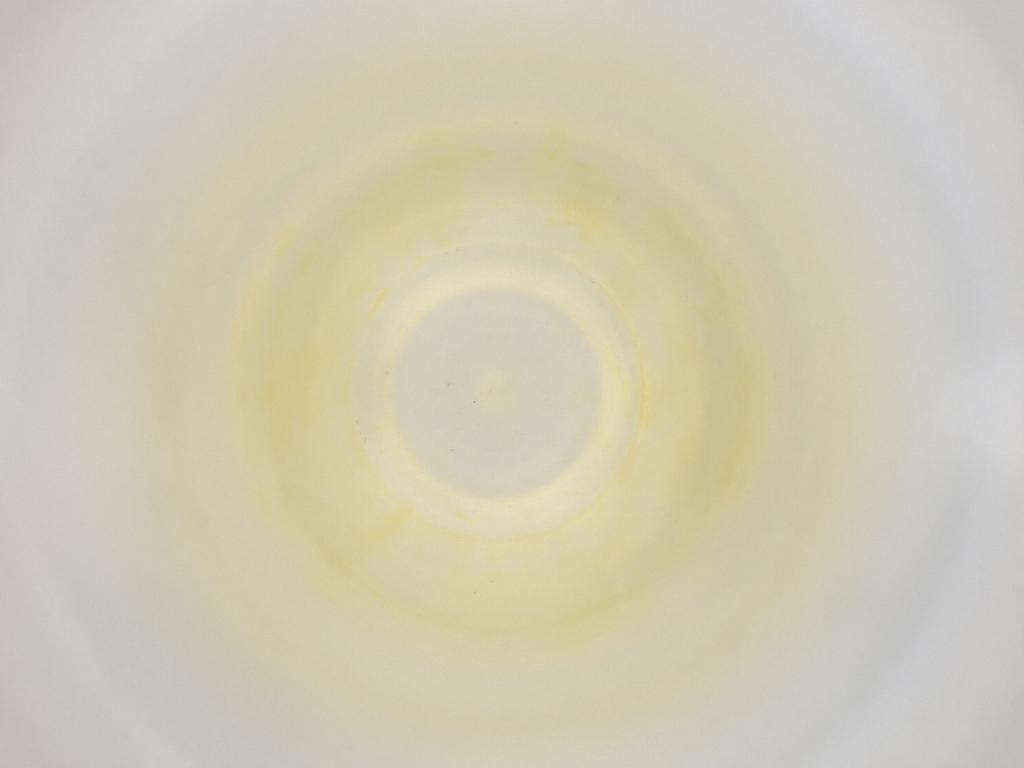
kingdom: Animalia
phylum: Arthropoda
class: Insecta
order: Diptera
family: Cecidomyiidae
